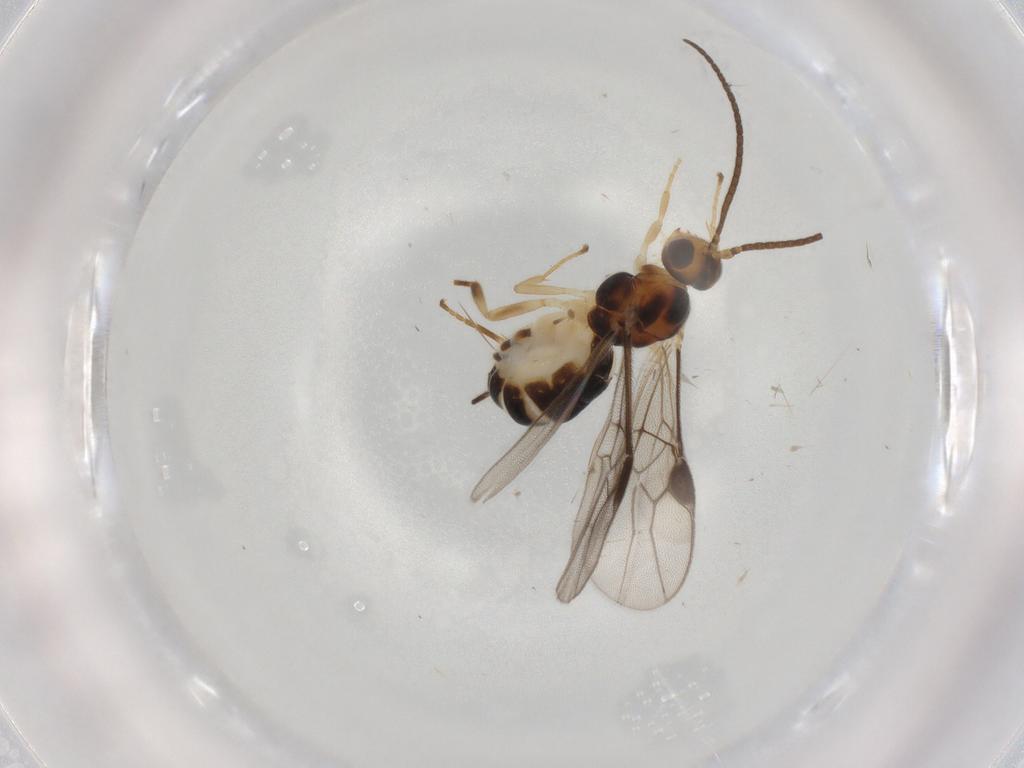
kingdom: Animalia
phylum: Arthropoda
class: Insecta
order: Hymenoptera
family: Braconidae
